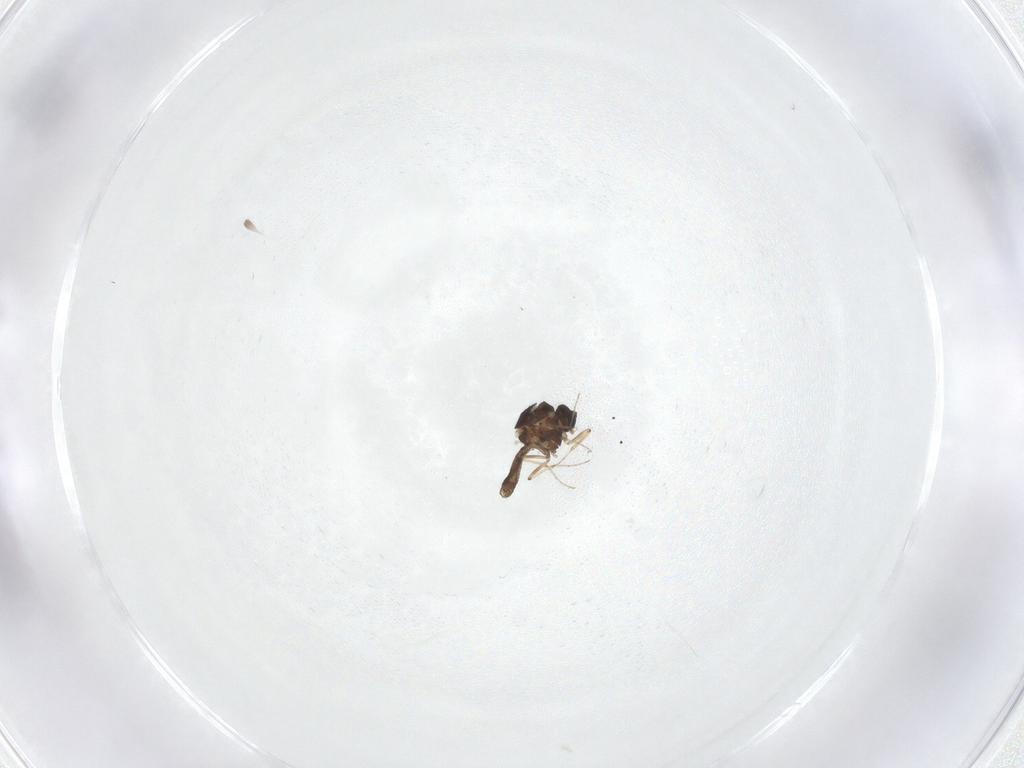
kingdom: Animalia
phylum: Arthropoda
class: Insecta
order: Diptera
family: Ceratopogonidae
